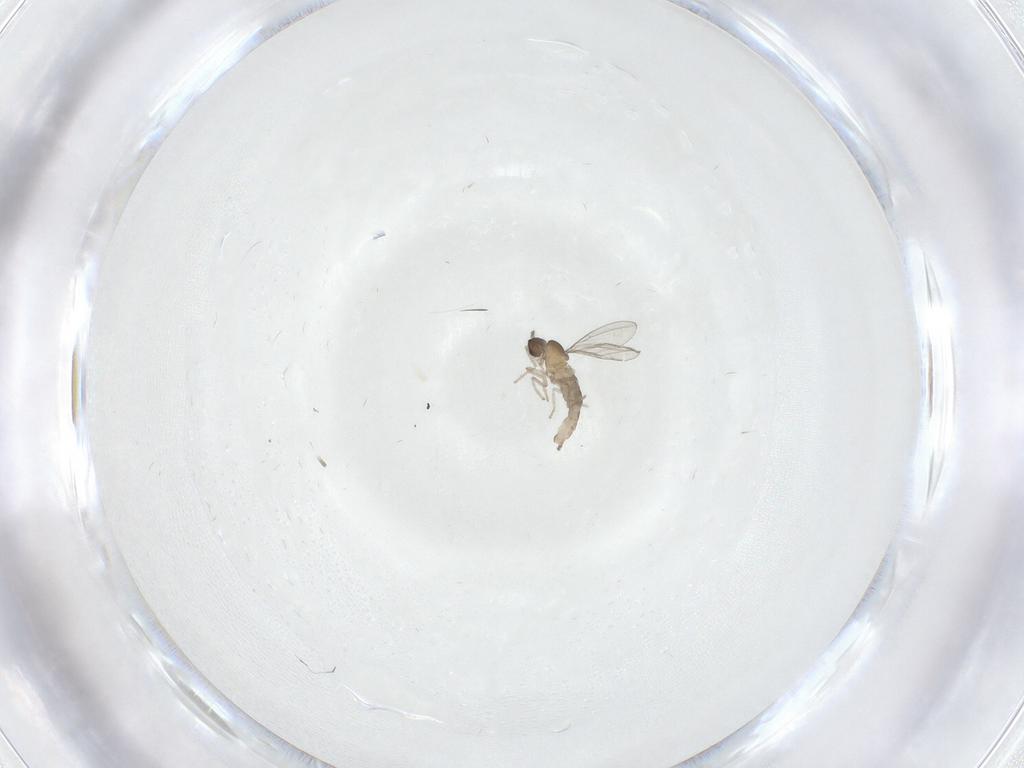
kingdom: Animalia
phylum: Arthropoda
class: Insecta
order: Diptera
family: Cecidomyiidae
